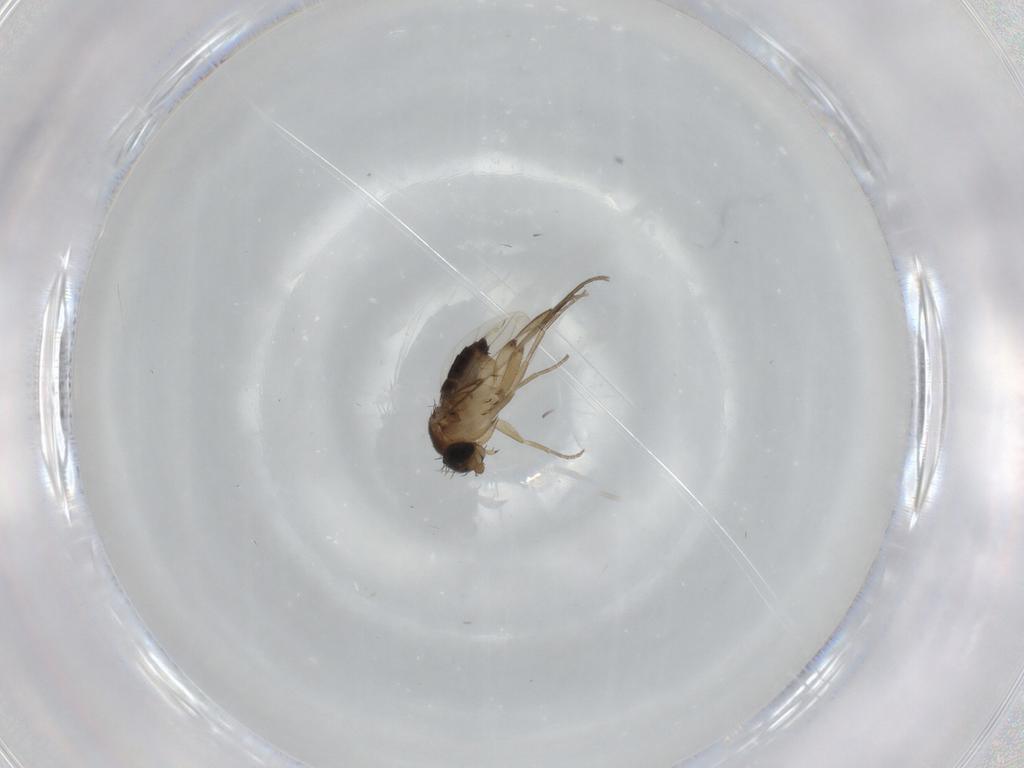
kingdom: Animalia
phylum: Arthropoda
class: Insecta
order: Diptera
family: Phoridae
